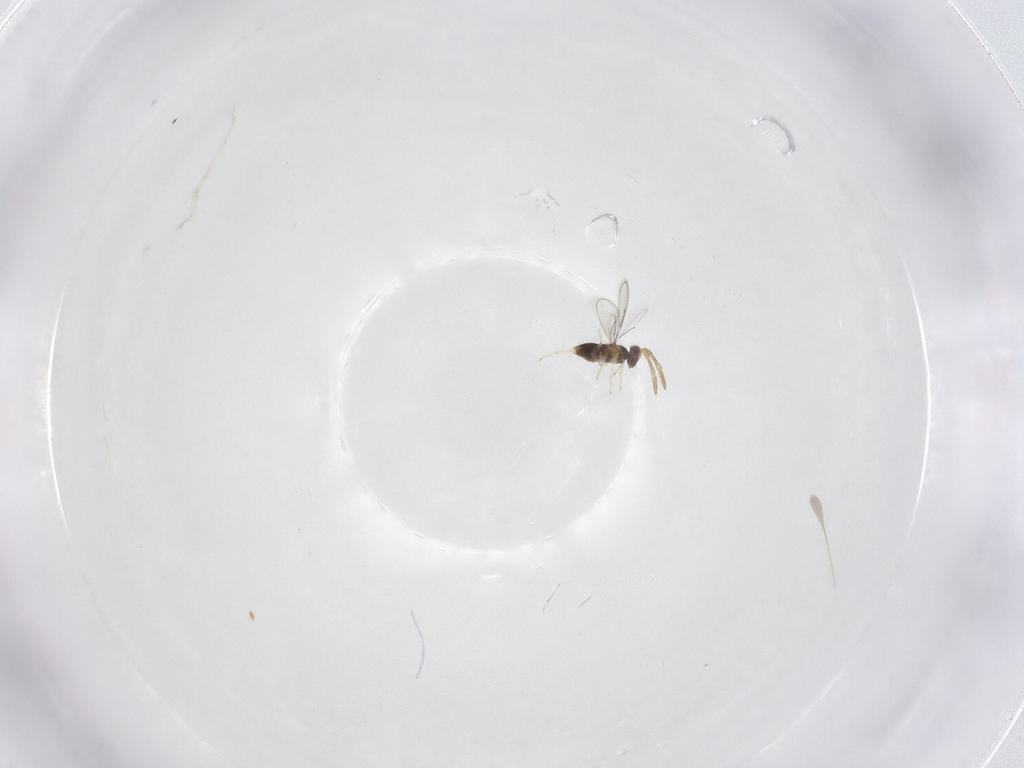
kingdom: Animalia
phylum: Arthropoda
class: Insecta
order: Hymenoptera
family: Aphelinidae
